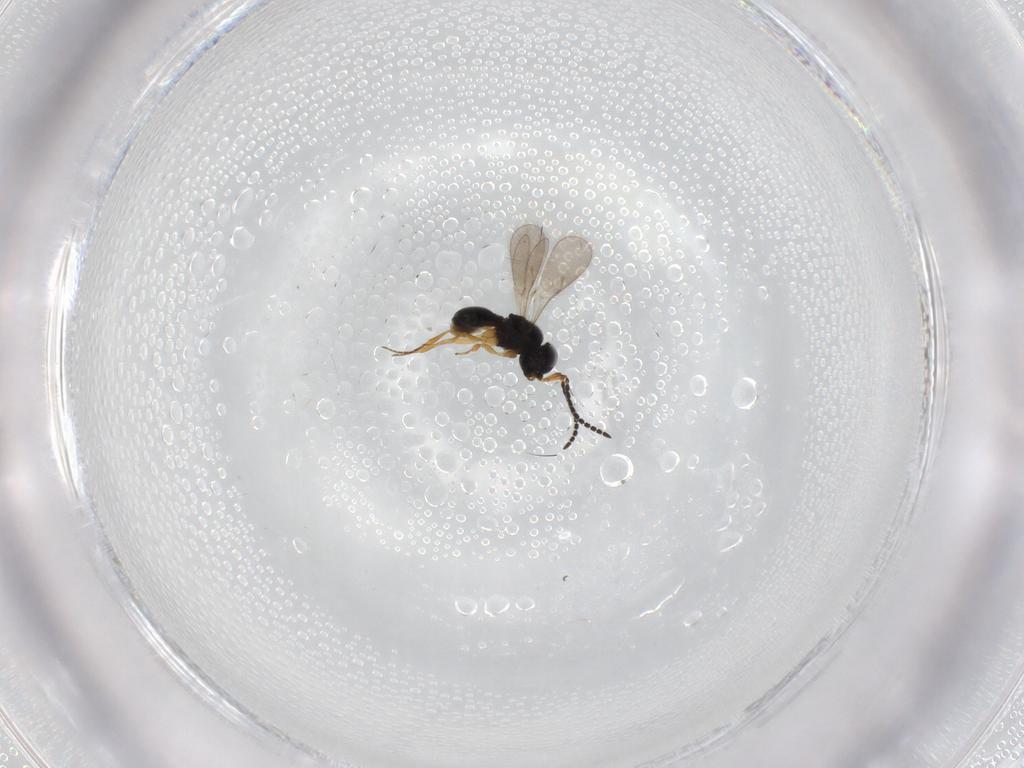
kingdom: Animalia
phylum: Arthropoda
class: Insecta
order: Hymenoptera
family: Scelionidae
